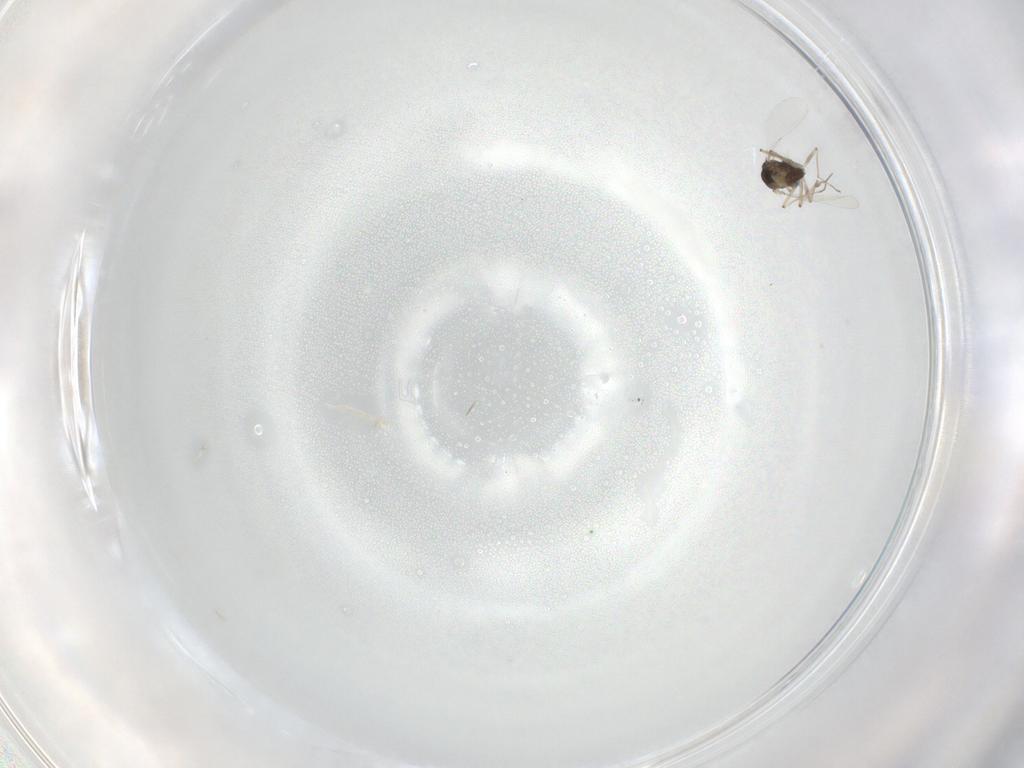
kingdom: Animalia
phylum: Arthropoda
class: Insecta
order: Diptera
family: Chironomidae
